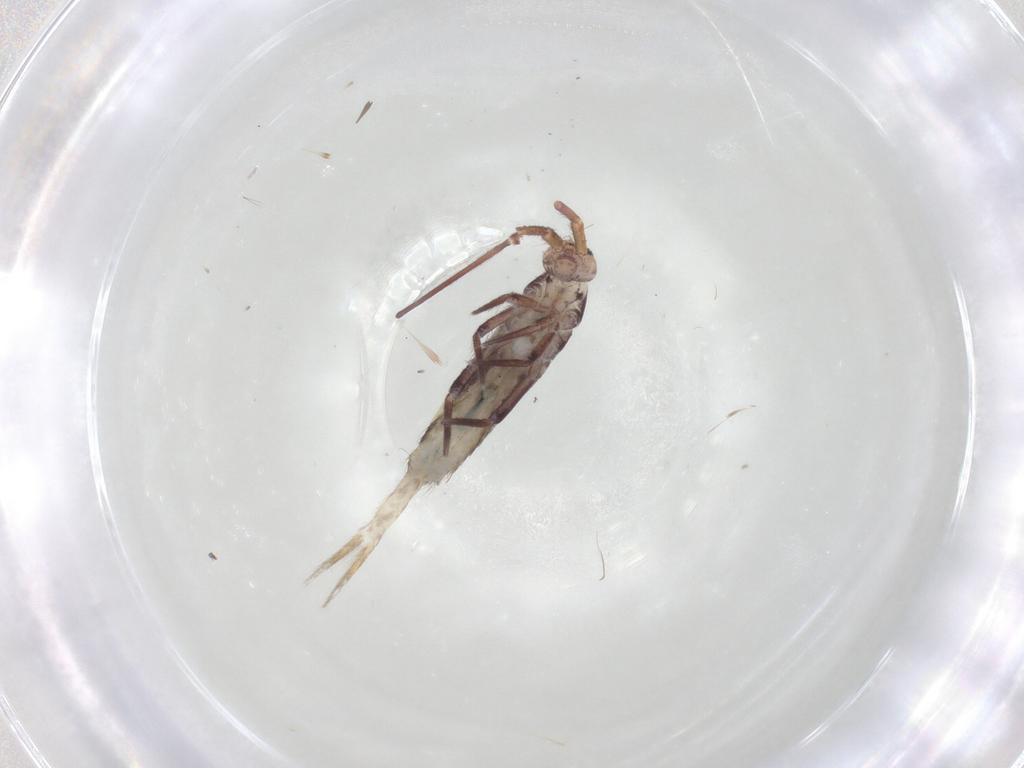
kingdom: Animalia
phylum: Arthropoda
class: Collembola
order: Entomobryomorpha
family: Entomobryidae
